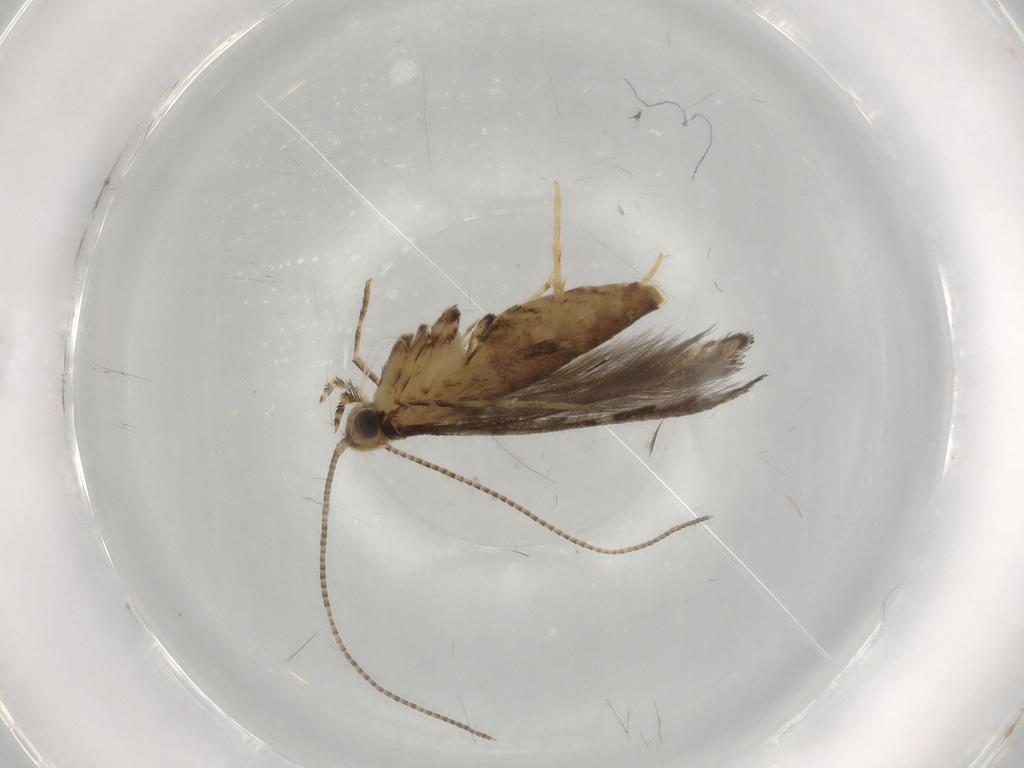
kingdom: Animalia
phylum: Arthropoda
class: Insecta
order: Lepidoptera
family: Gracillariidae
